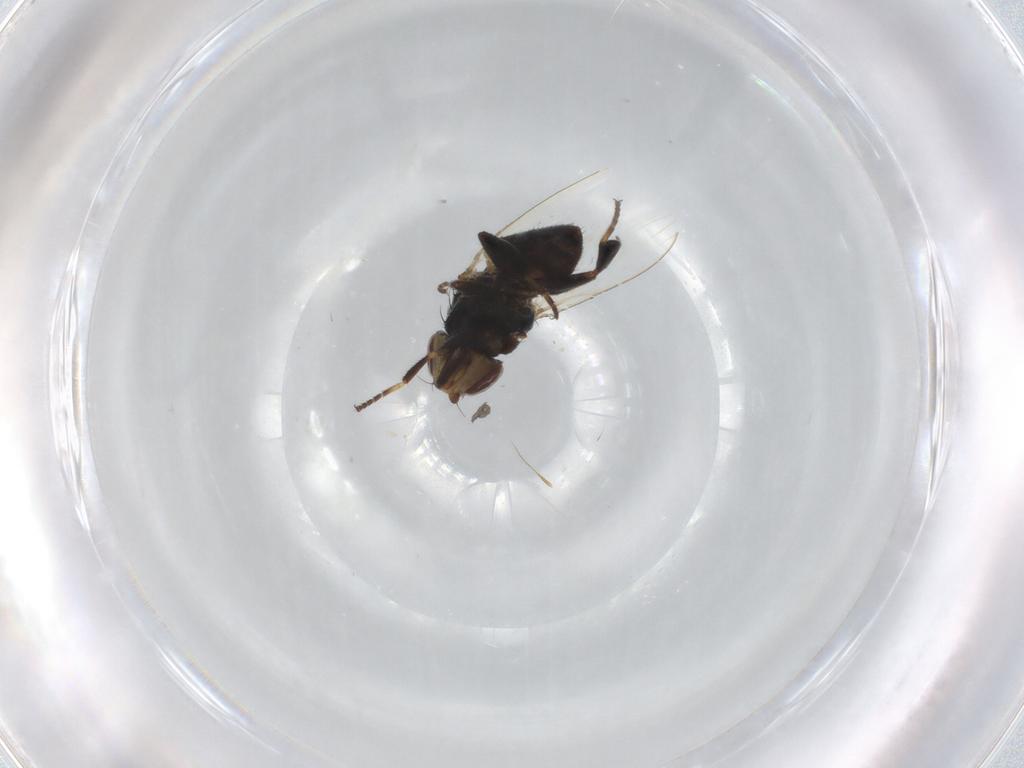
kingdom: Animalia
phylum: Arthropoda
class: Insecta
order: Diptera
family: Milichiidae
